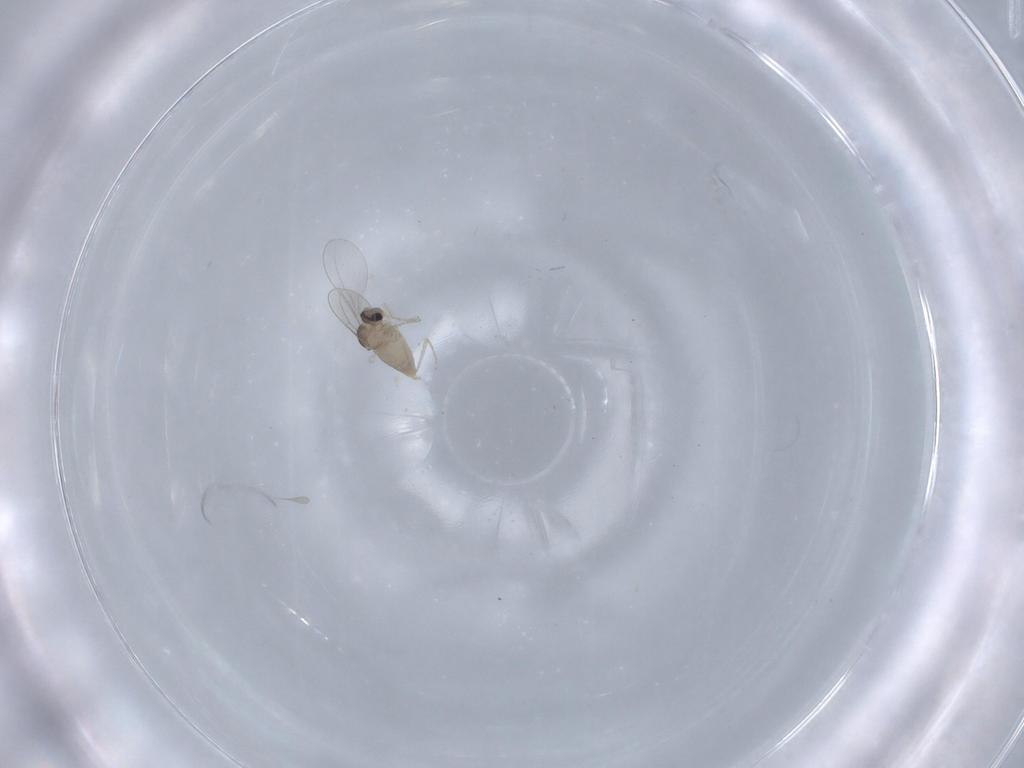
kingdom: Animalia
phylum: Arthropoda
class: Insecta
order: Diptera
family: Cecidomyiidae
